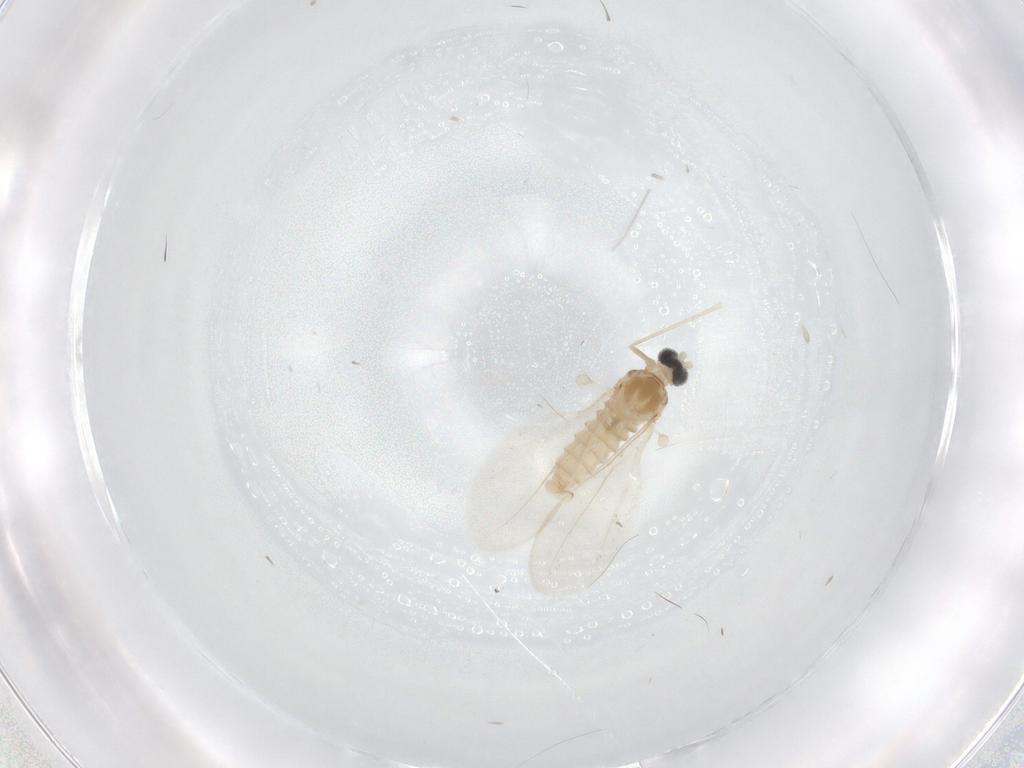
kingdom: Animalia
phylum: Arthropoda
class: Insecta
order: Diptera
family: Cecidomyiidae
